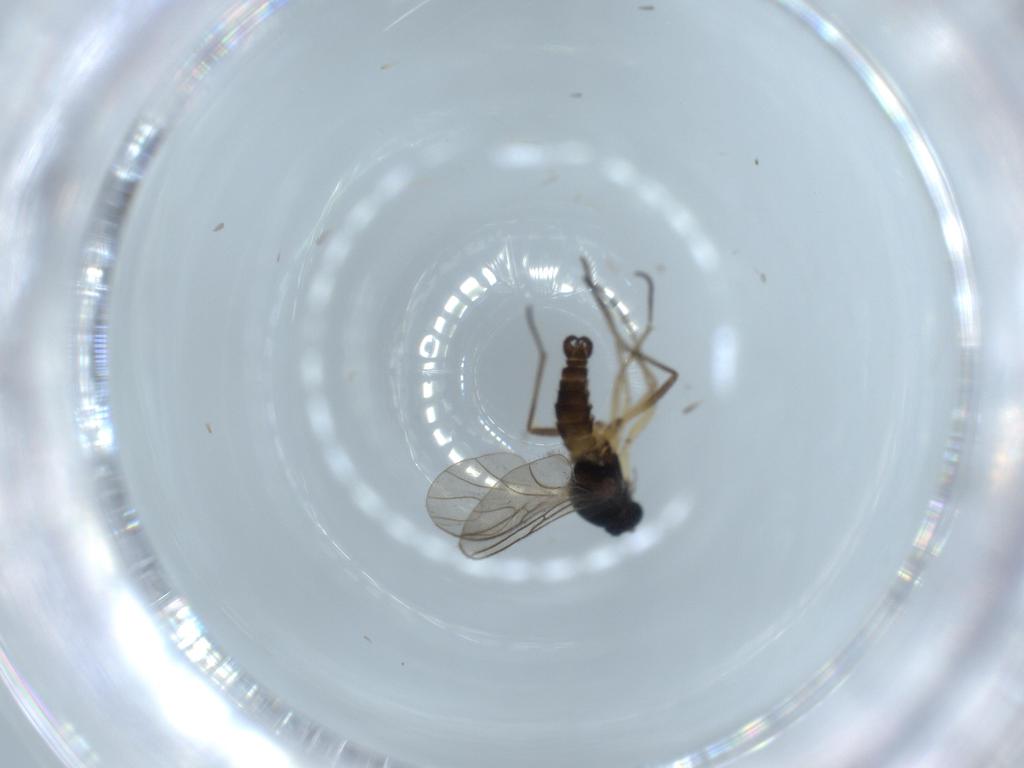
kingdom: Animalia
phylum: Arthropoda
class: Insecta
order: Diptera
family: Sciaridae
